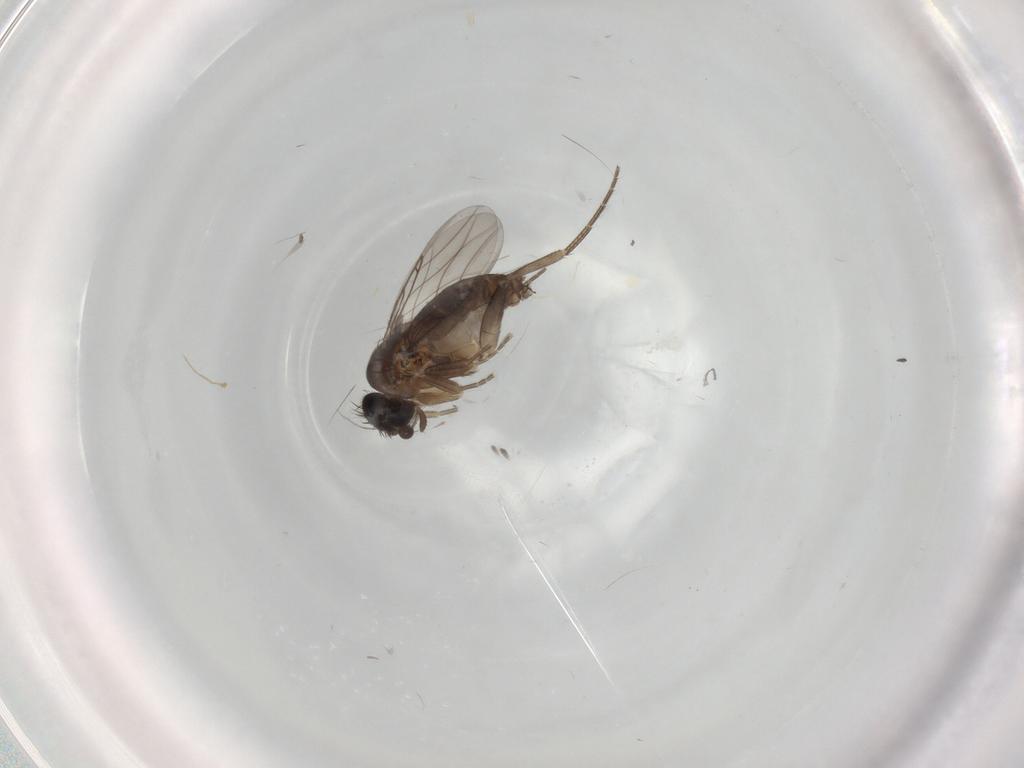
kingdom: Animalia
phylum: Arthropoda
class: Insecta
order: Diptera
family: Phoridae
